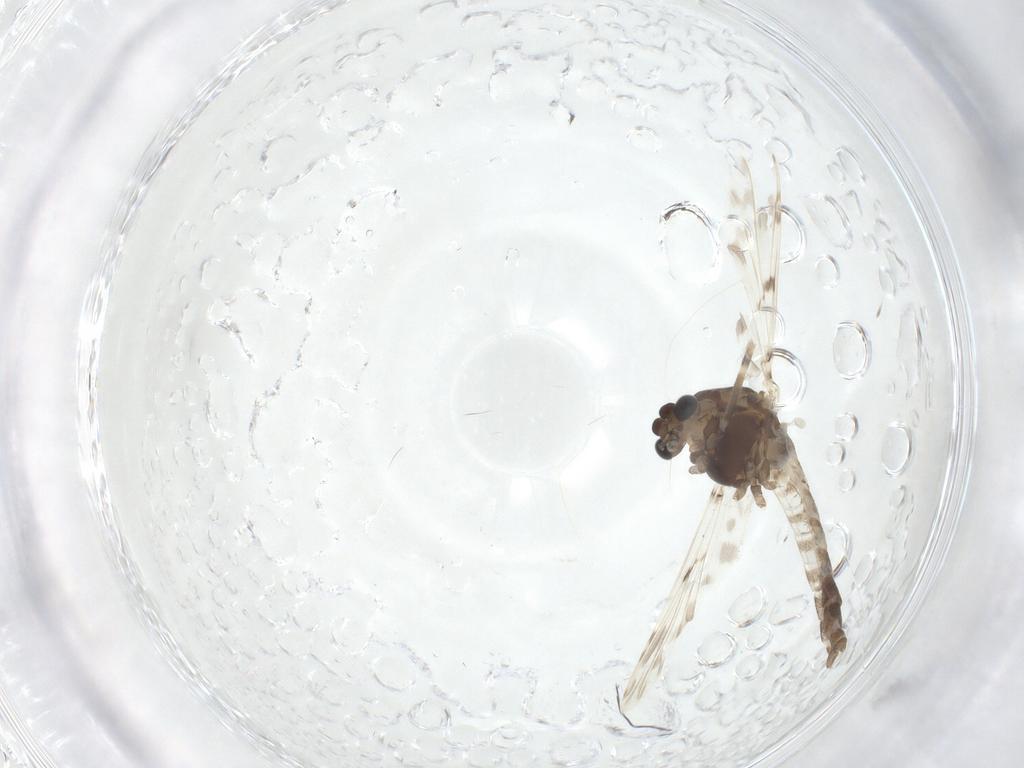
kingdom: Animalia
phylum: Arthropoda
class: Insecta
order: Diptera
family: Chironomidae
